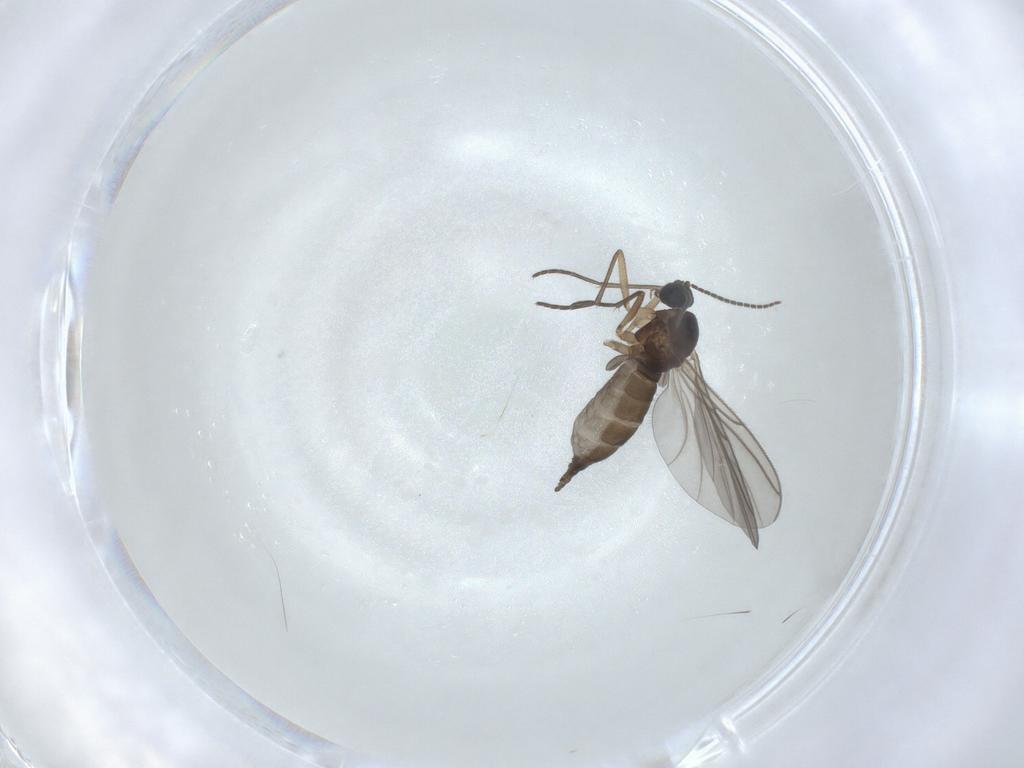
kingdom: Animalia
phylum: Arthropoda
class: Insecta
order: Diptera
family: Sciaridae
